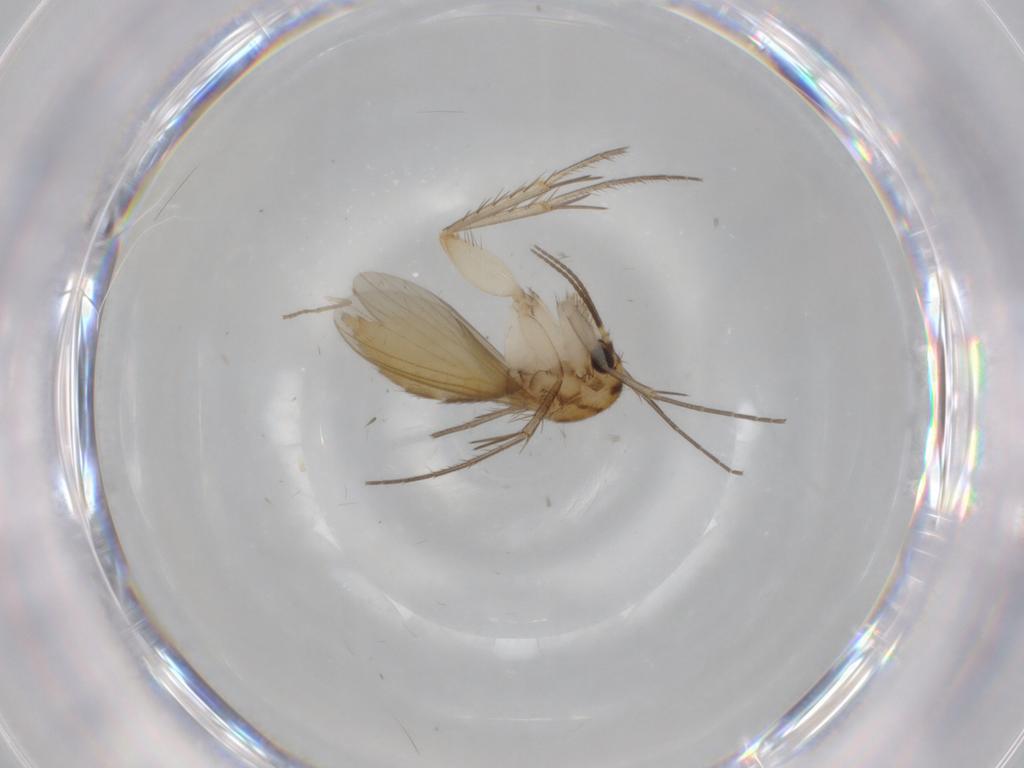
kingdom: Animalia
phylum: Arthropoda
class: Insecta
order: Diptera
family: Mycetophilidae
